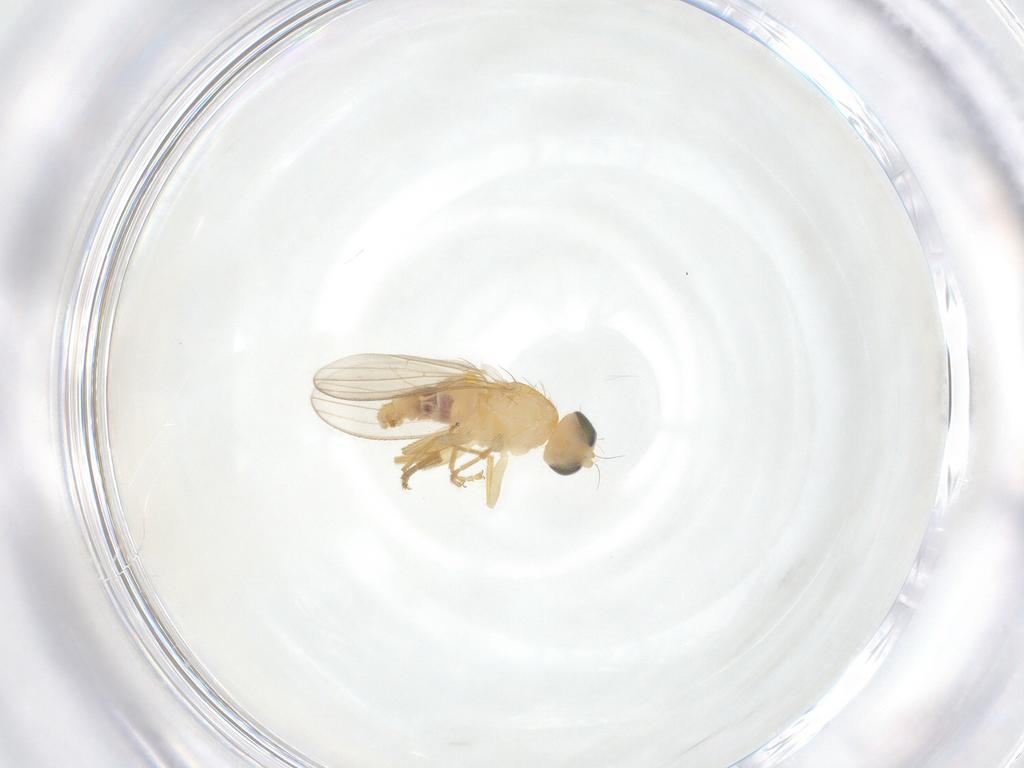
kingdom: Animalia
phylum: Arthropoda
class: Insecta
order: Diptera
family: Chyromyidae
